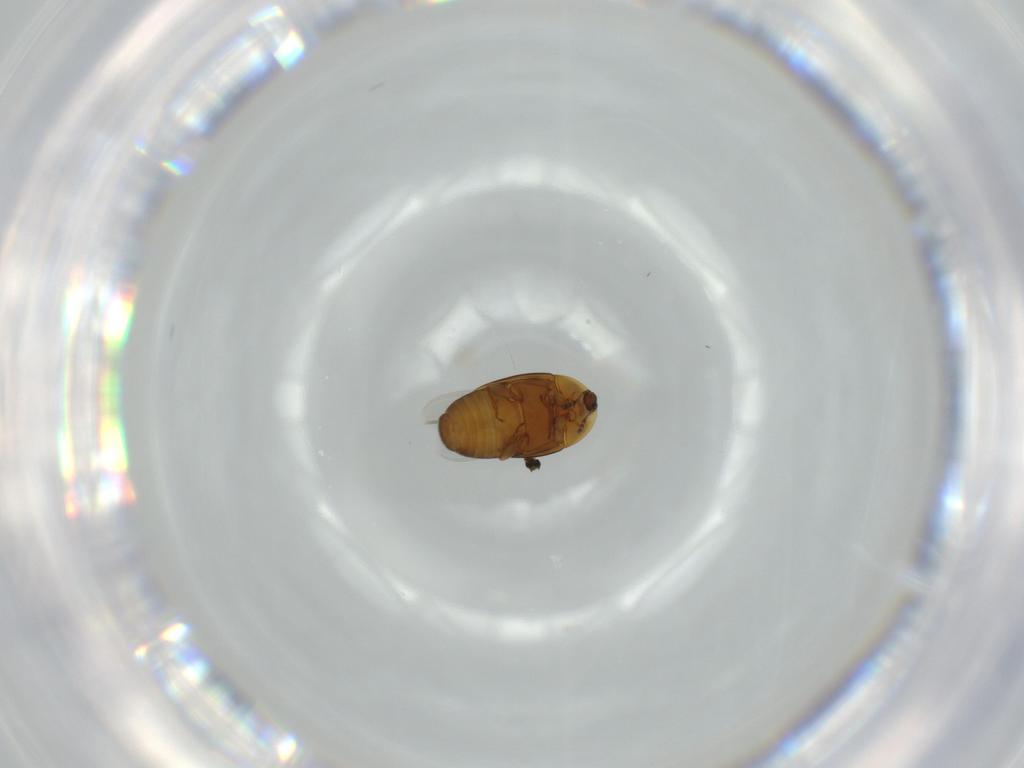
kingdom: Animalia
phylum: Arthropoda
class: Insecta
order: Coleoptera
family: Corylophidae
